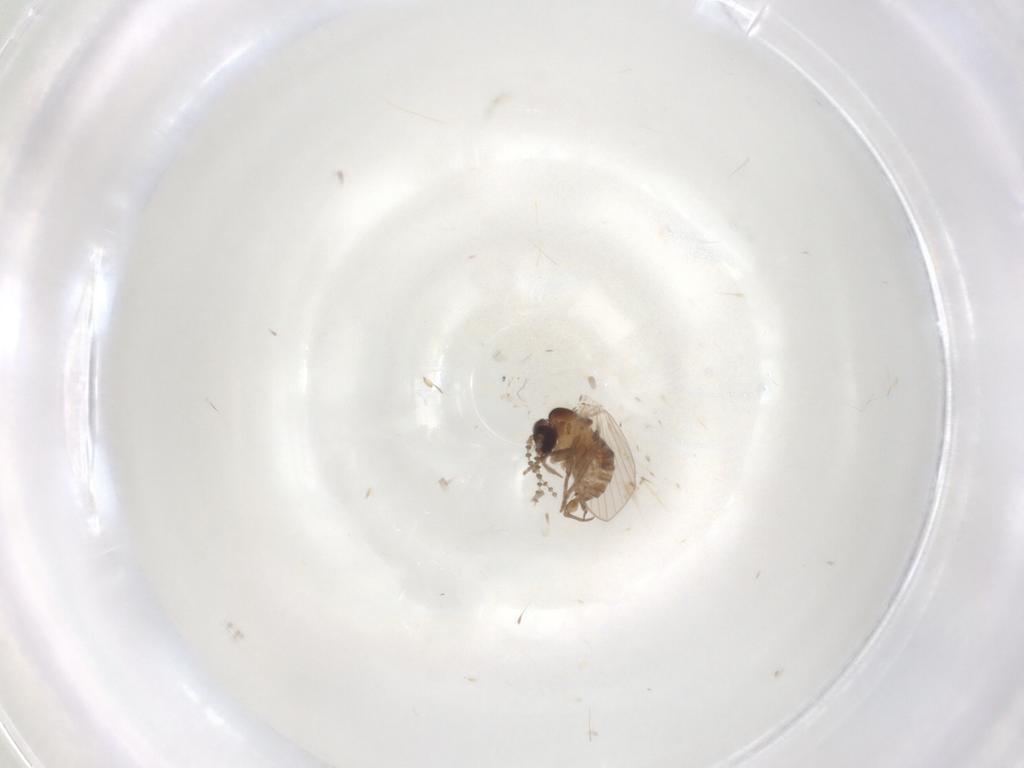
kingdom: Animalia
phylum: Arthropoda
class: Insecta
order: Diptera
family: Psychodidae
